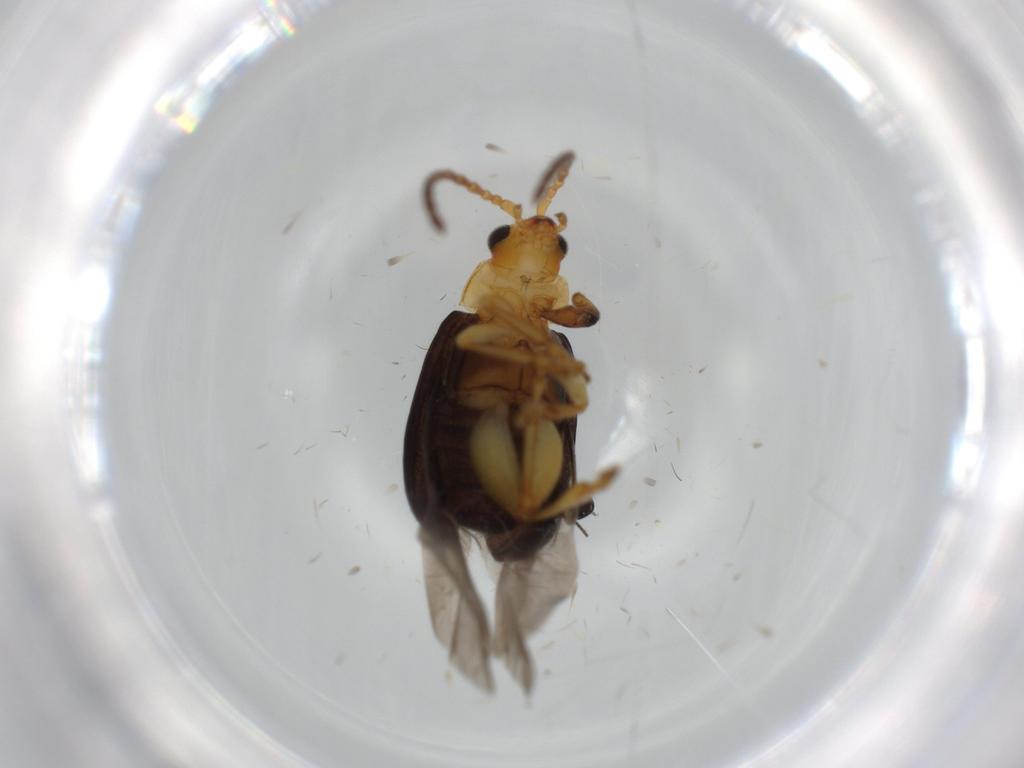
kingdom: Animalia
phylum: Arthropoda
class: Insecta
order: Coleoptera
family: Chrysomelidae
